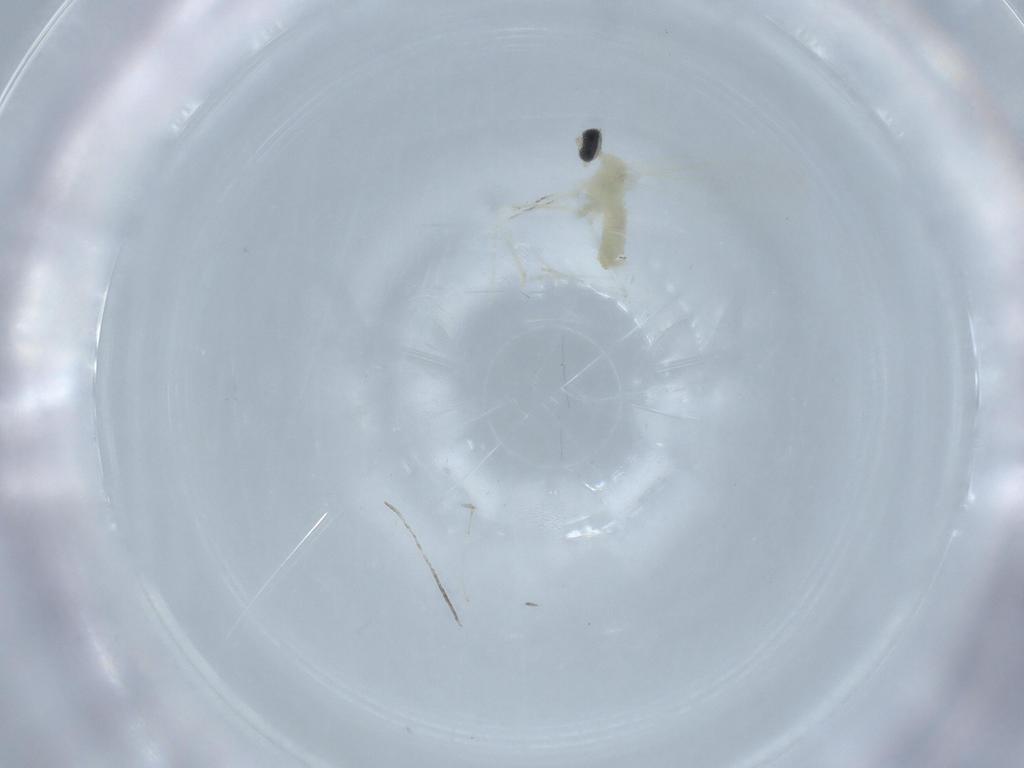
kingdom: Animalia
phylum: Arthropoda
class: Insecta
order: Diptera
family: Cecidomyiidae
